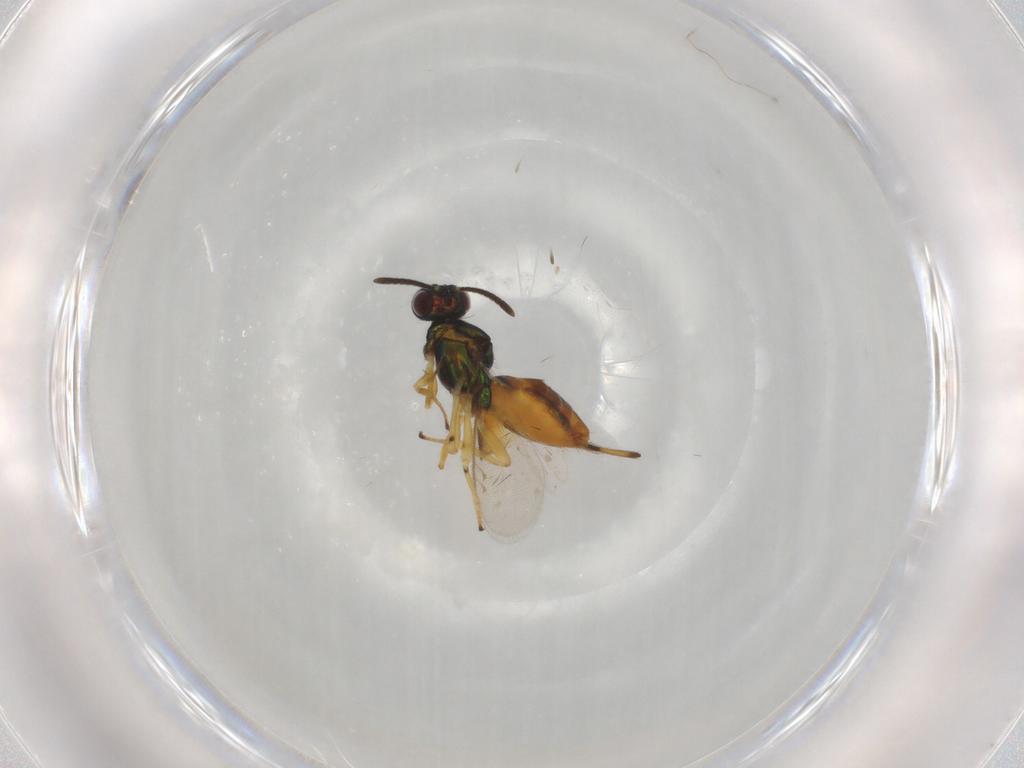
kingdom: Animalia
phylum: Arthropoda
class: Insecta
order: Hymenoptera
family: Eupelmidae
